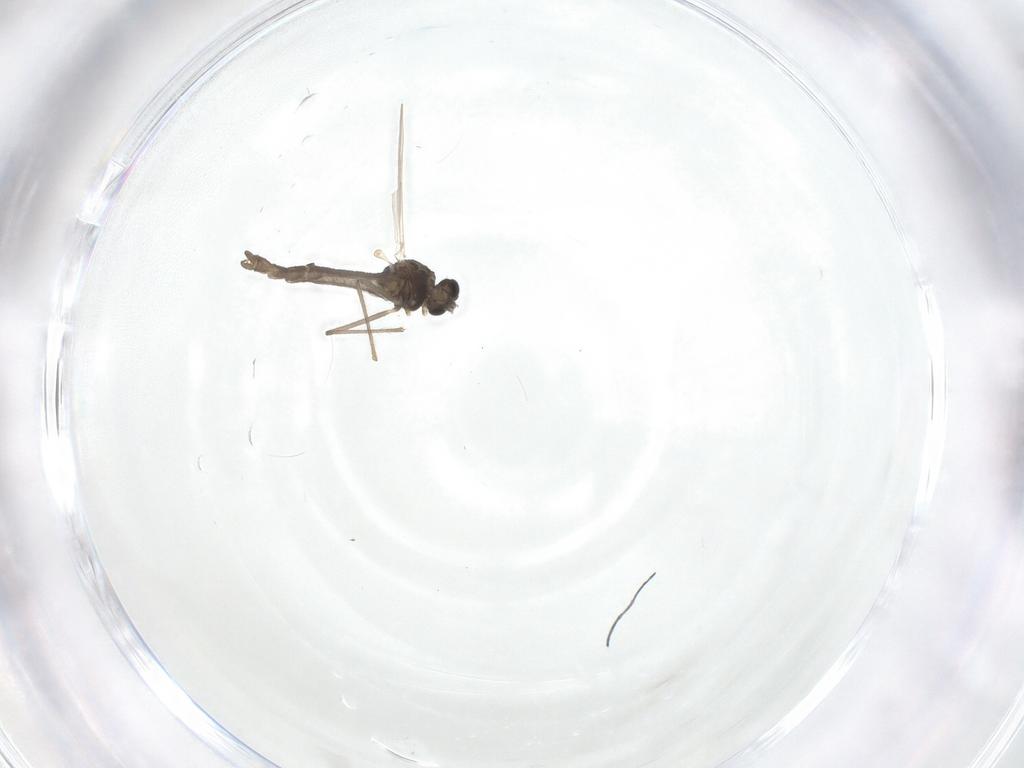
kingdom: Animalia
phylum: Arthropoda
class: Insecta
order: Diptera
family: Chironomidae
